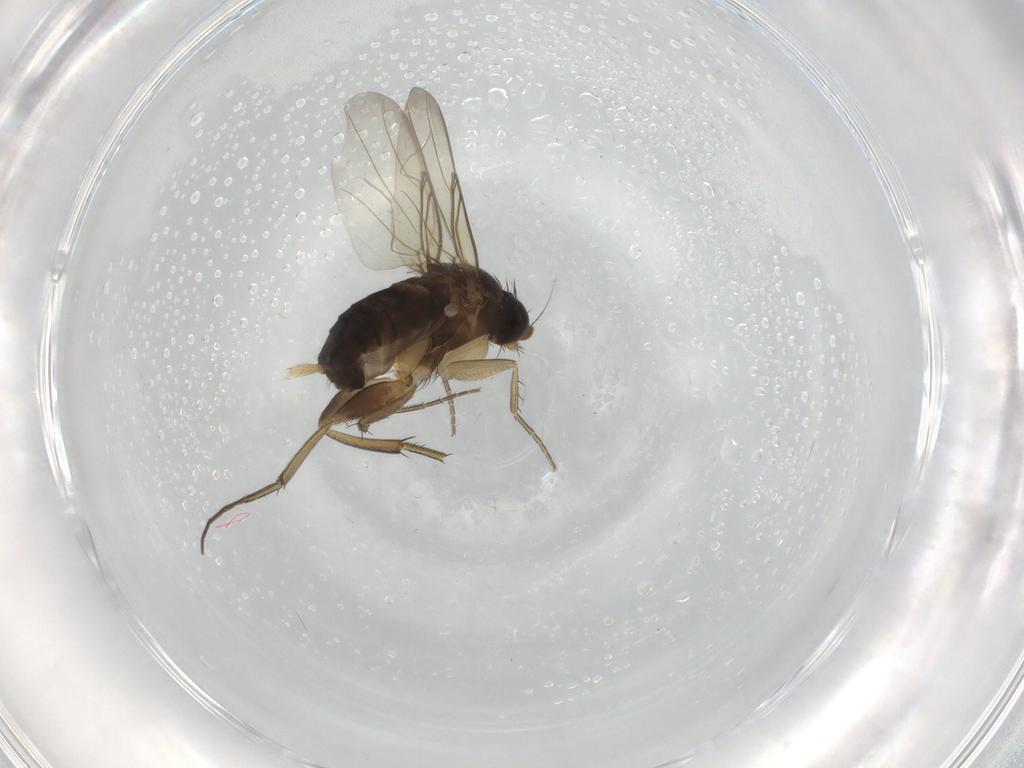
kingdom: Animalia
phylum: Arthropoda
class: Insecta
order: Diptera
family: Phoridae
